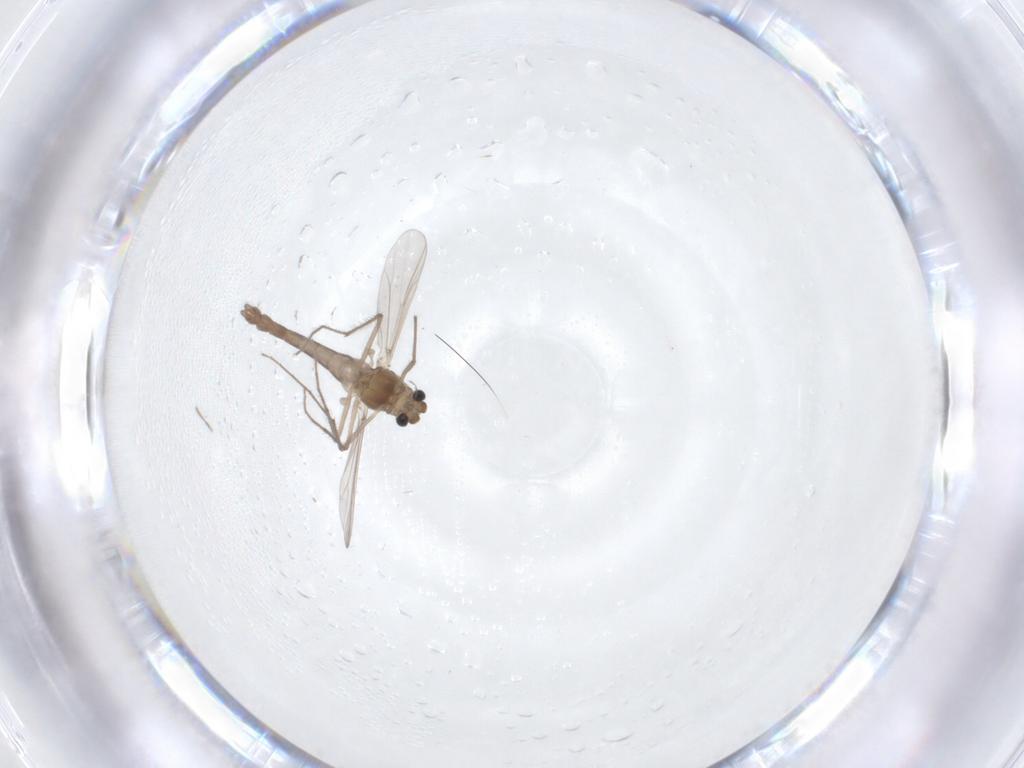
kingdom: Animalia
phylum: Arthropoda
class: Insecta
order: Diptera
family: Chironomidae
